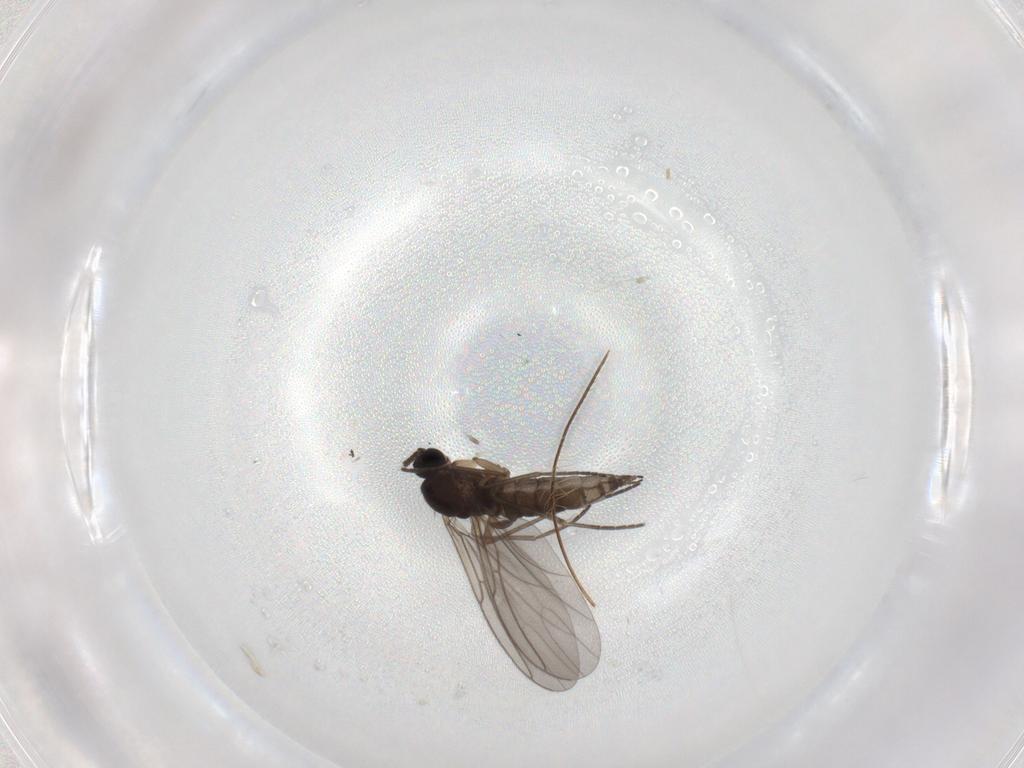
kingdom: Animalia
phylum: Arthropoda
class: Insecta
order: Diptera
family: Sciaridae
